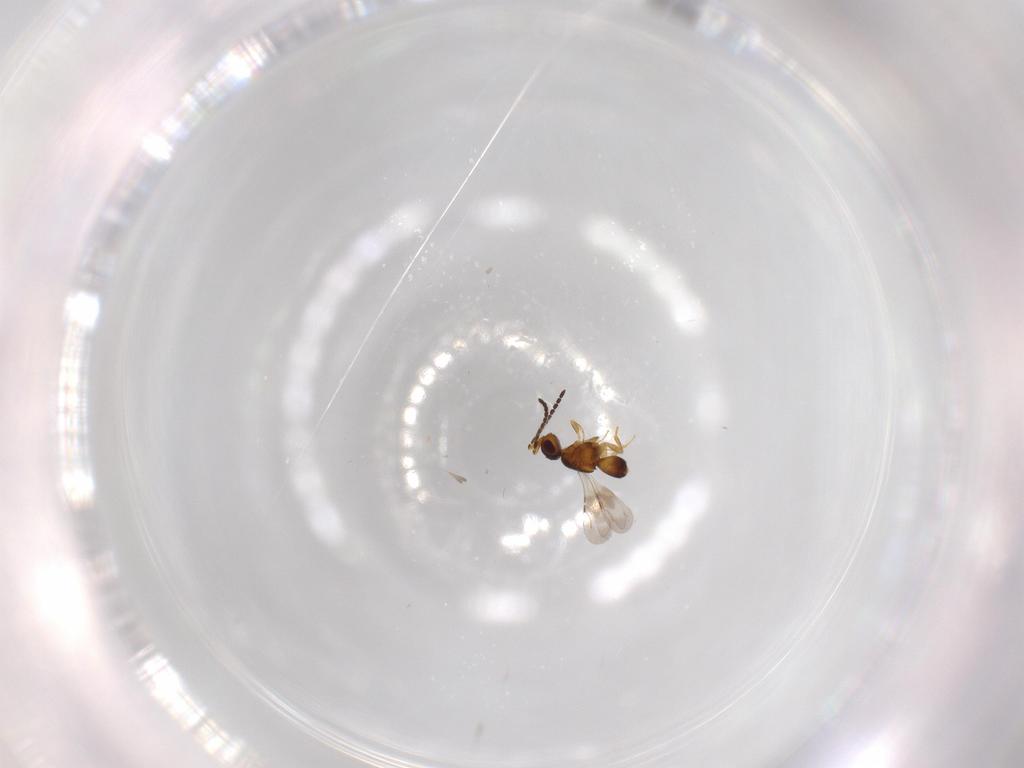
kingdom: Animalia
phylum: Arthropoda
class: Insecta
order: Hymenoptera
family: Ceraphronidae
